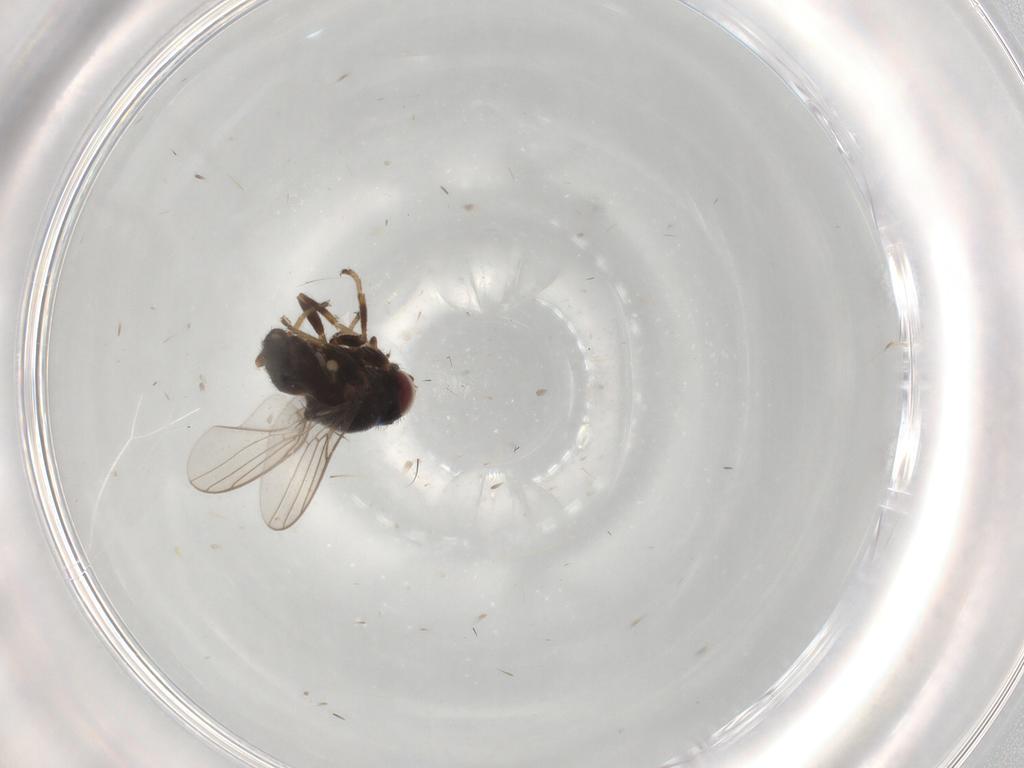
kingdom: Animalia
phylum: Arthropoda
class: Insecta
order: Diptera
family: Chloropidae
